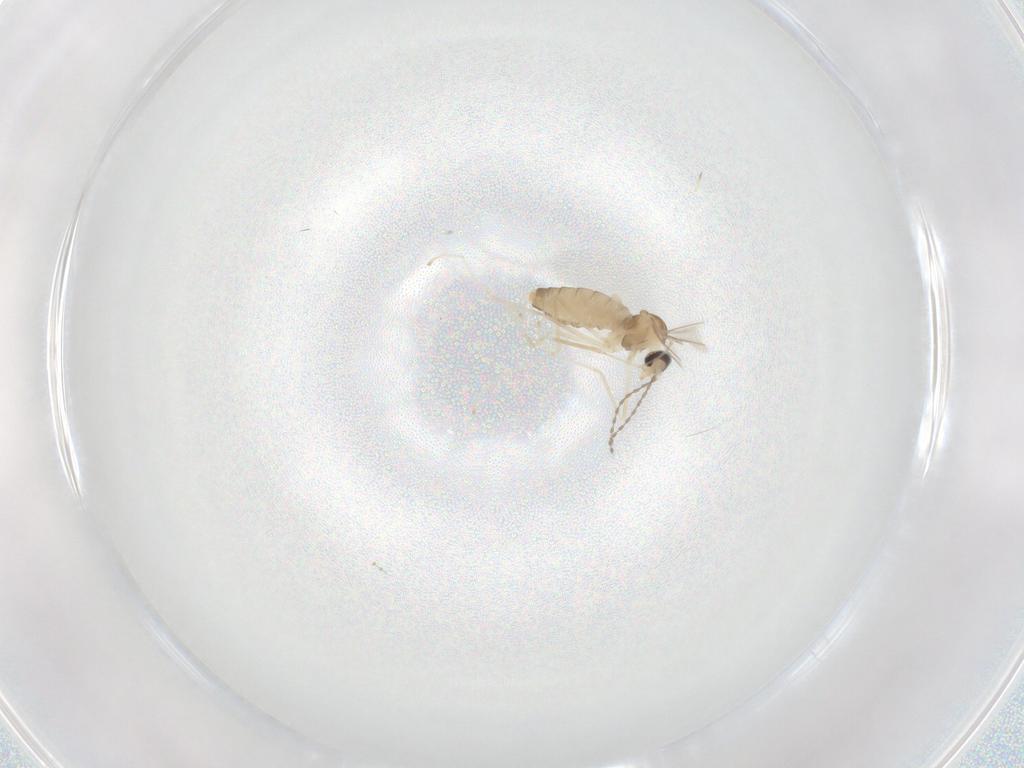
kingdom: Animalia
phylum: Arthropoda
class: Insecta
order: Diptera
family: Cecidomyiidae
